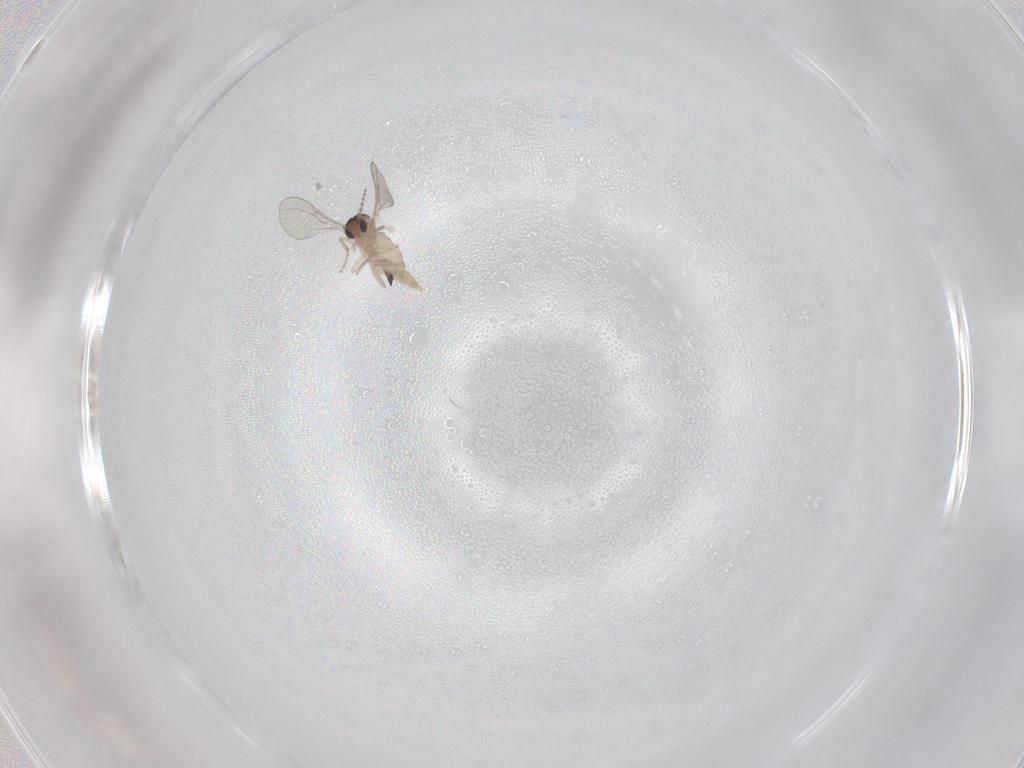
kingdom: Animalia
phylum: Arthropoda
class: Insecta
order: Diptera
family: Cecidomyiidae
